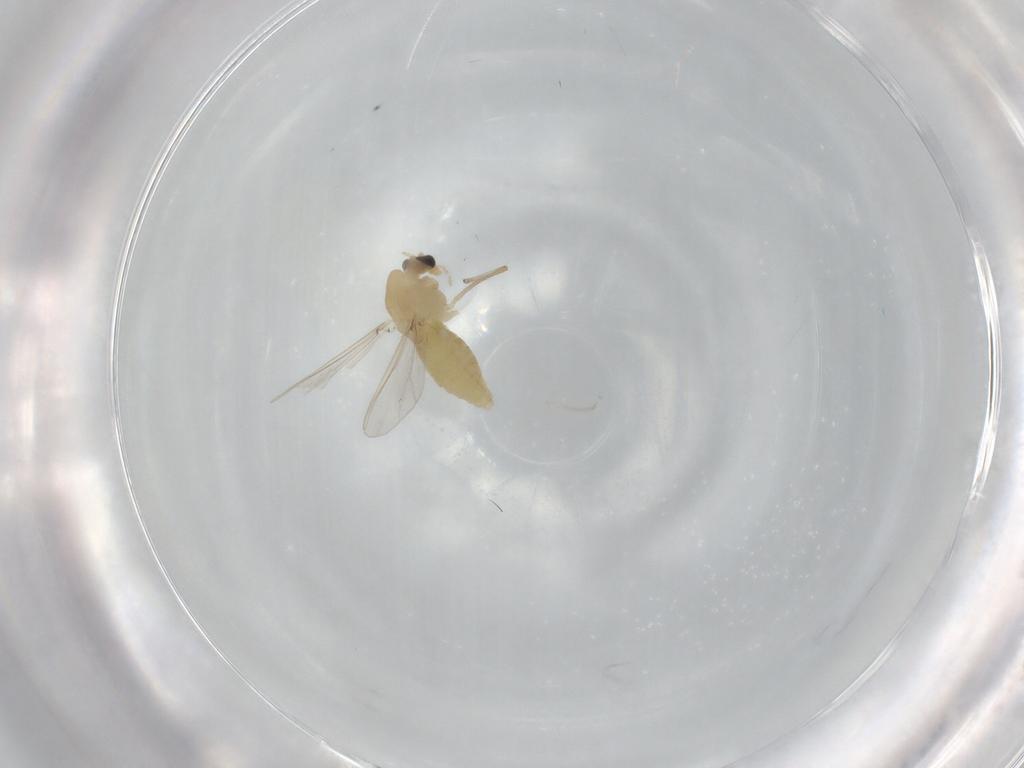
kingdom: Animalia
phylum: Arthropoda
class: Insecta
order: Diptera
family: Chironomidae
